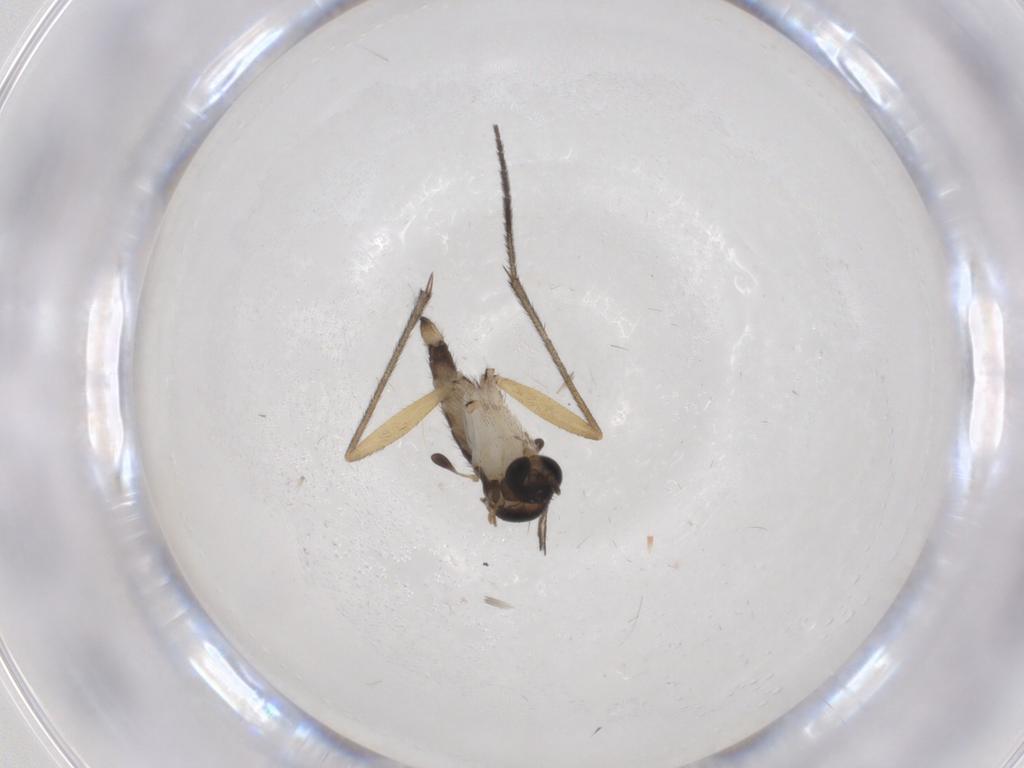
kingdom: Animalia
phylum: Arthropoda
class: Insecta
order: Diptera
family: Sciaridae
